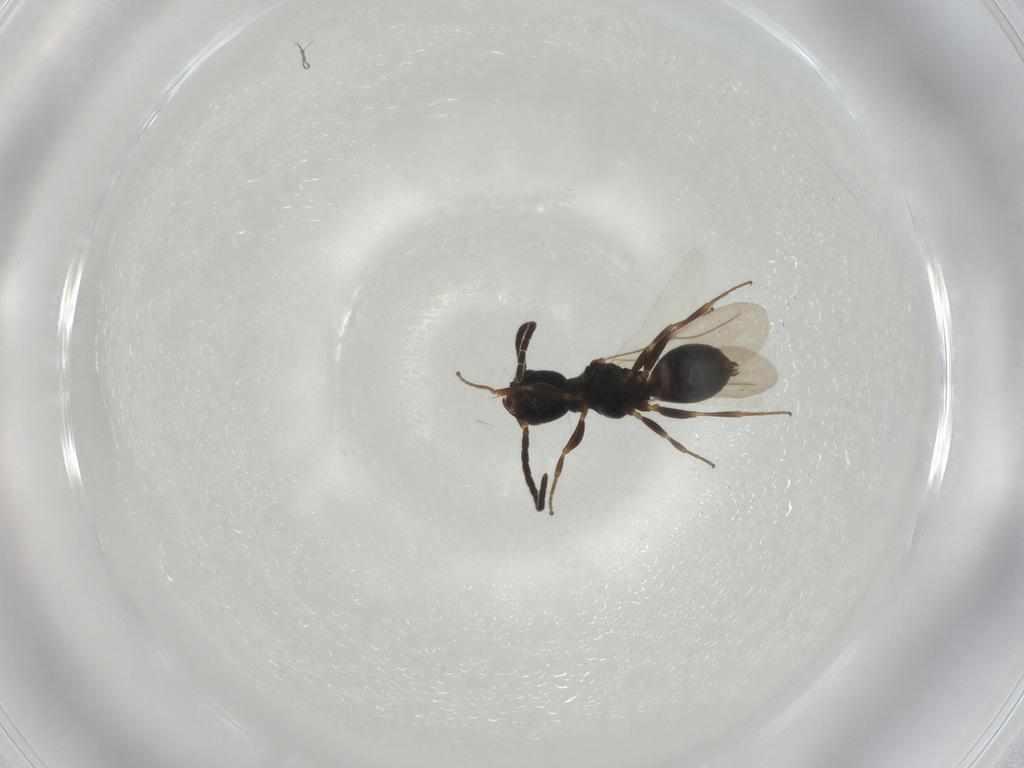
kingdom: Animalia
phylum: Arthropoda
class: Insecta
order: Hymenoptera
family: Bethylidae
